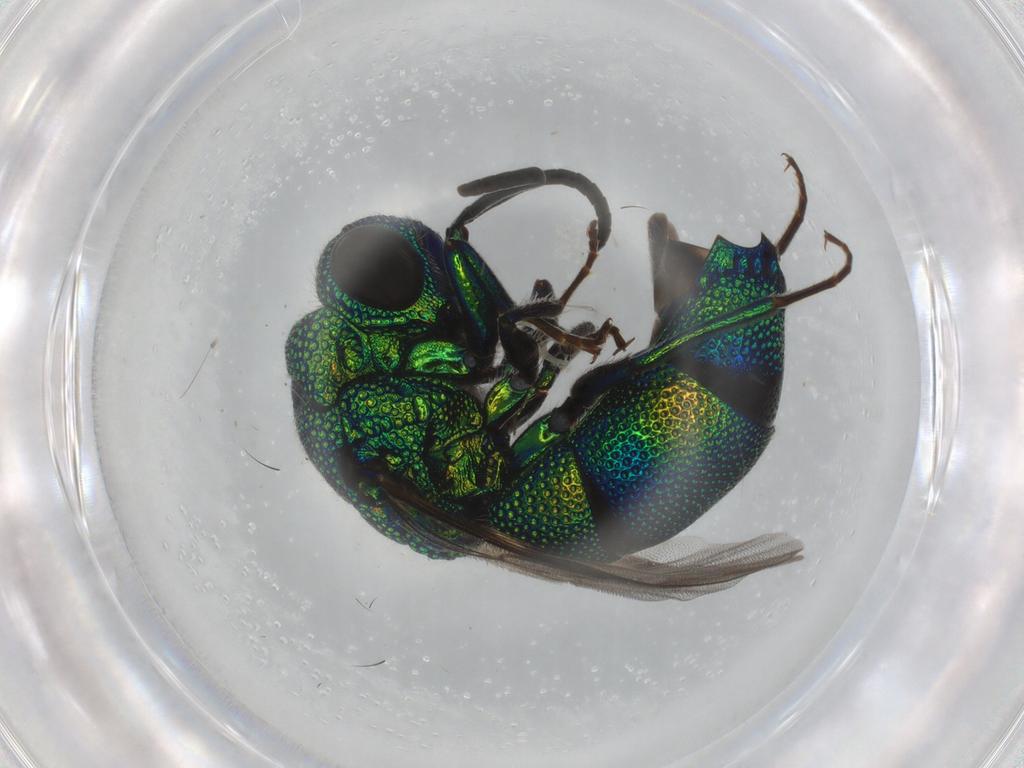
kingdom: Animalia
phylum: Arthropoda
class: Insecta
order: Hymenoptera
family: Chrysididae
